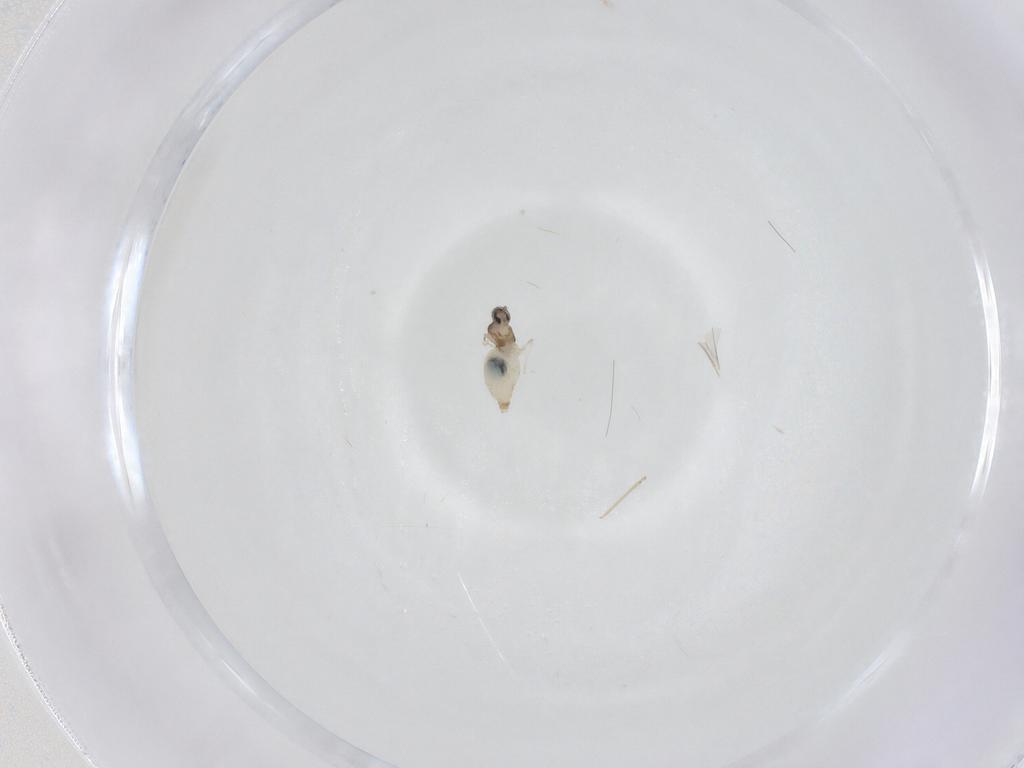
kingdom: Animalia
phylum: Arthropoda
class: Insecta
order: Diptera
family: Cecidomyiidae
